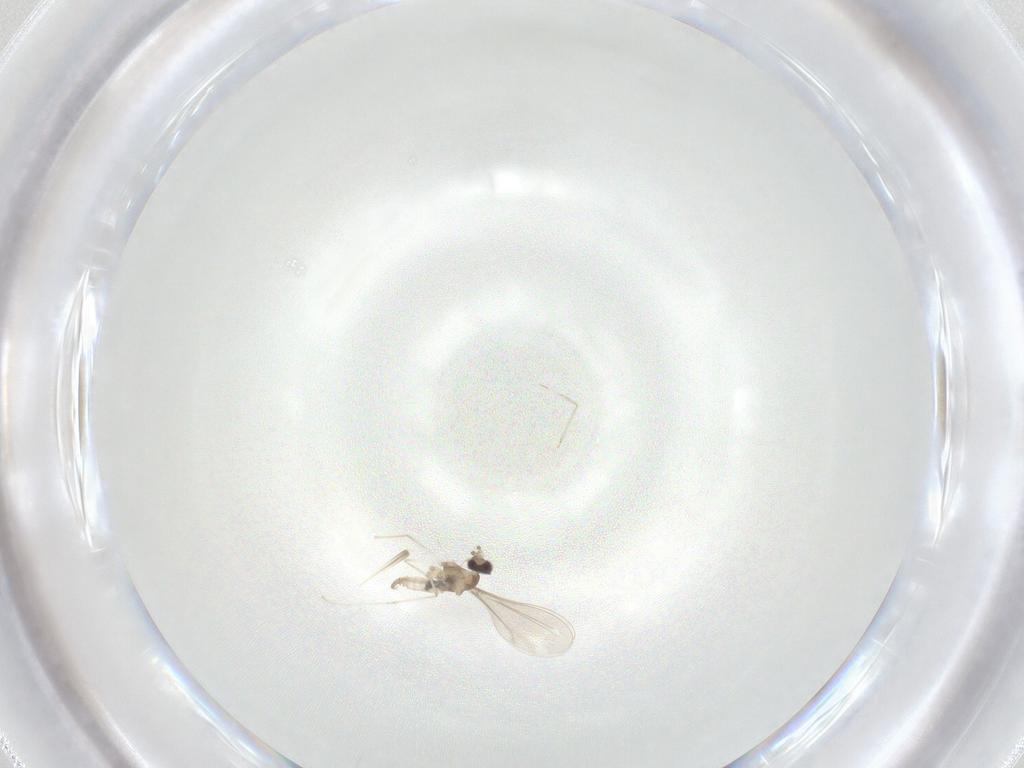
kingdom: Animalia
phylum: Arthropoda
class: Insecta
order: Diptera
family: Cecidomyiidae
